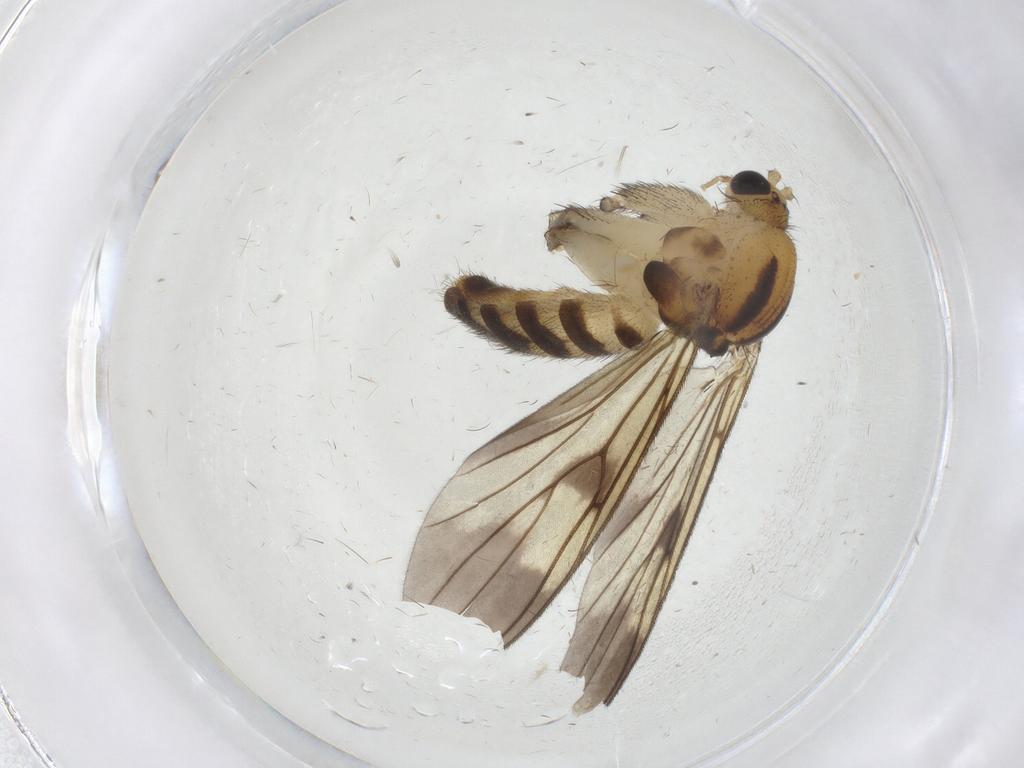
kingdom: Animalia
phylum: Arthropoda
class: Insecta
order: Diptera
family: Mycetophilidae
